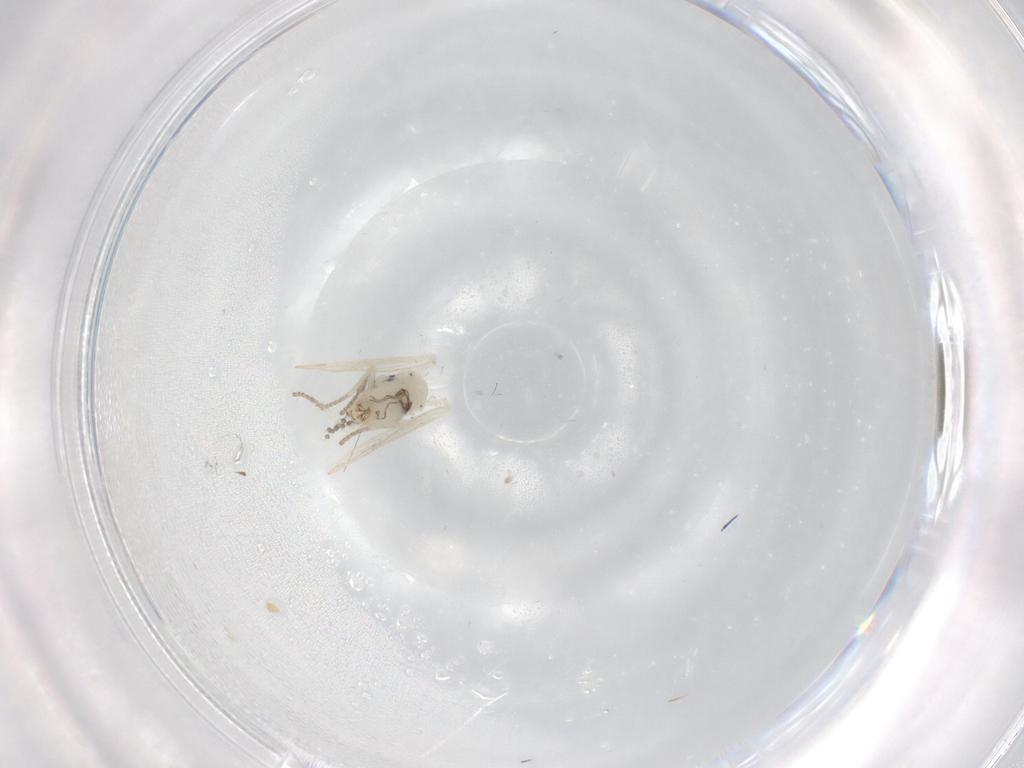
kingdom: Animalia
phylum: Arthropoda
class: Insecta
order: Diptera
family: Psychodidae
